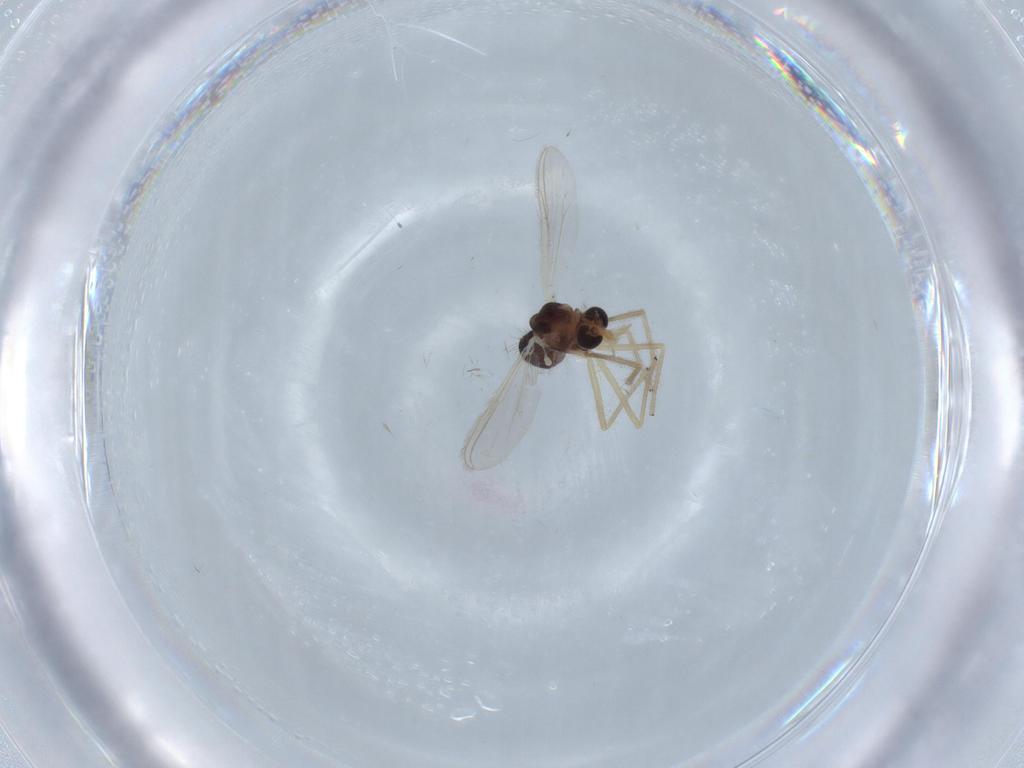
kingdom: Animalia
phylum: Arthropoda
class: Insecta
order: Diptera
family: Chironomidae
